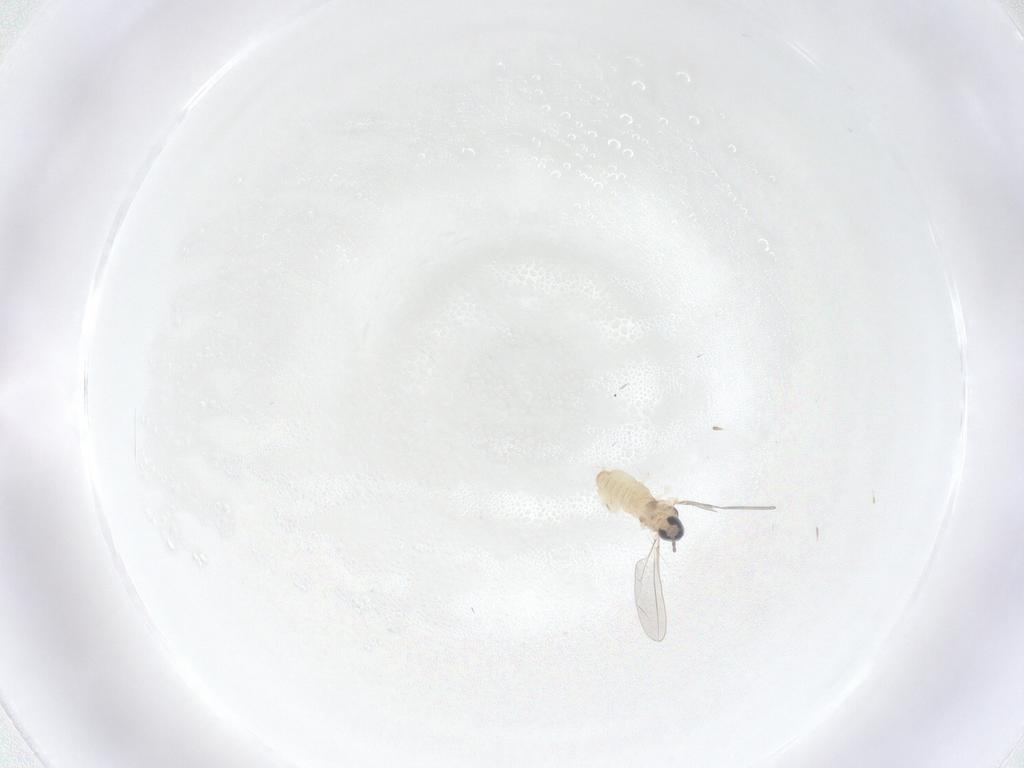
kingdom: Animalia
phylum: Arthropoda
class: Insecta
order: Diptera
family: Cecidomyiidae
